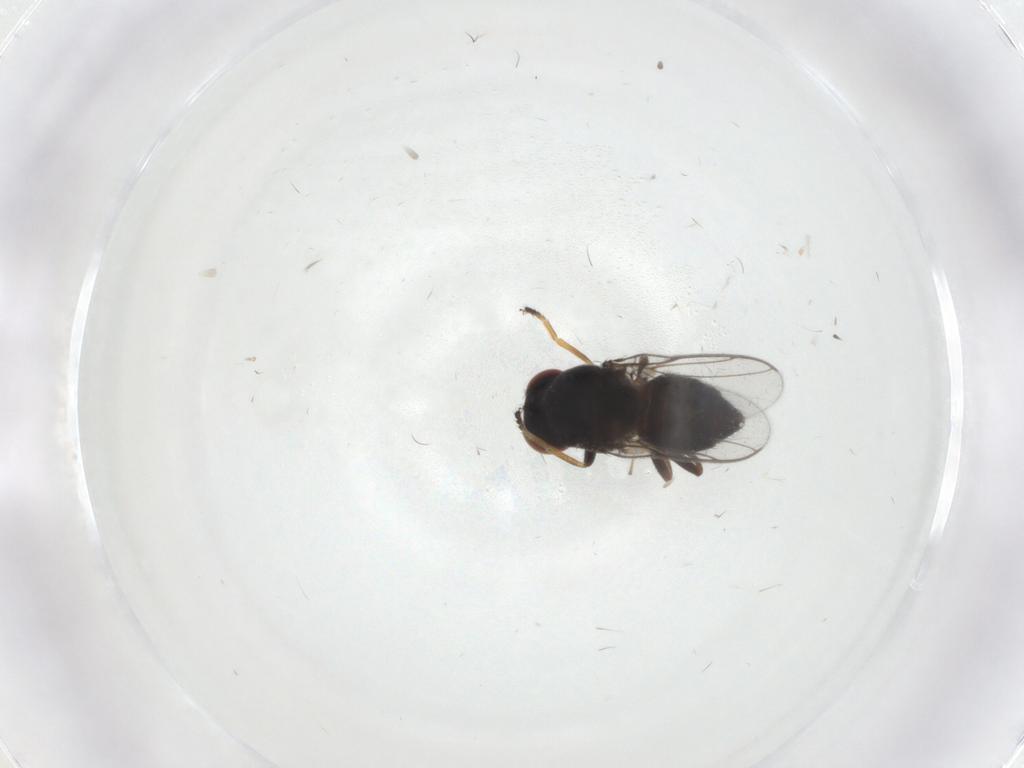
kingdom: Animalia
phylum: Arthropoda
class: Insecta
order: Diptera
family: Chloropidae
